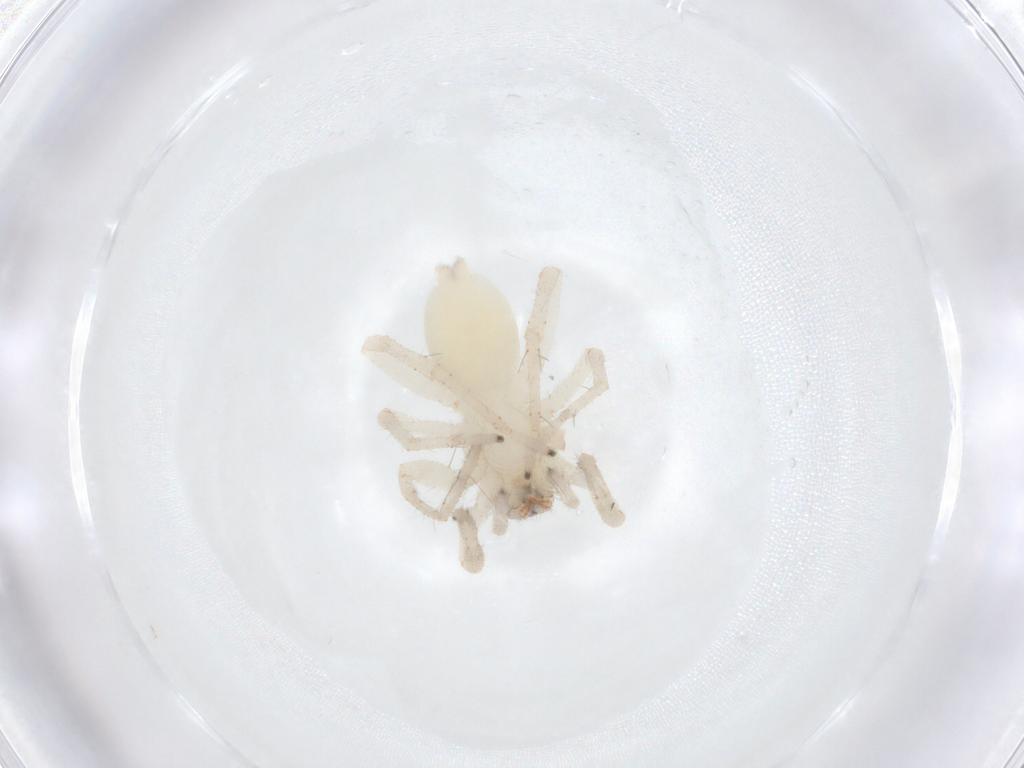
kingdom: Animalia
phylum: Arthropoda
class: Arachnida
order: Araneae
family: Clubionidae
